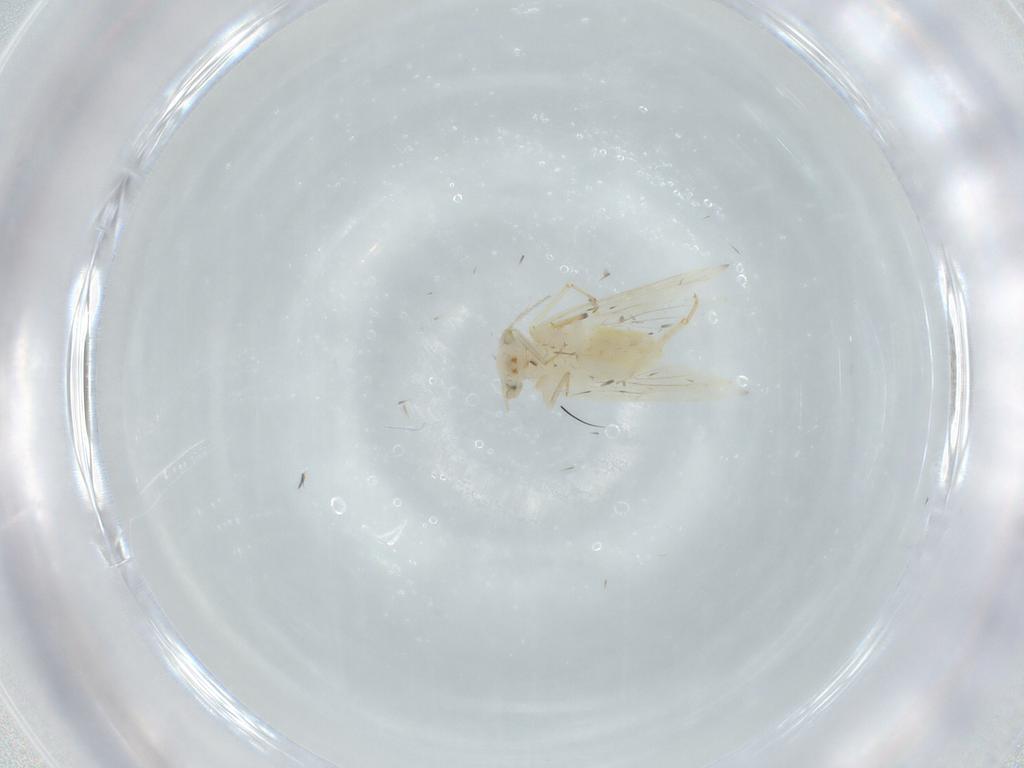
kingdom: Animalia
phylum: Arthropoda
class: Insecta
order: Psocodea
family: Lepidopsocidae
